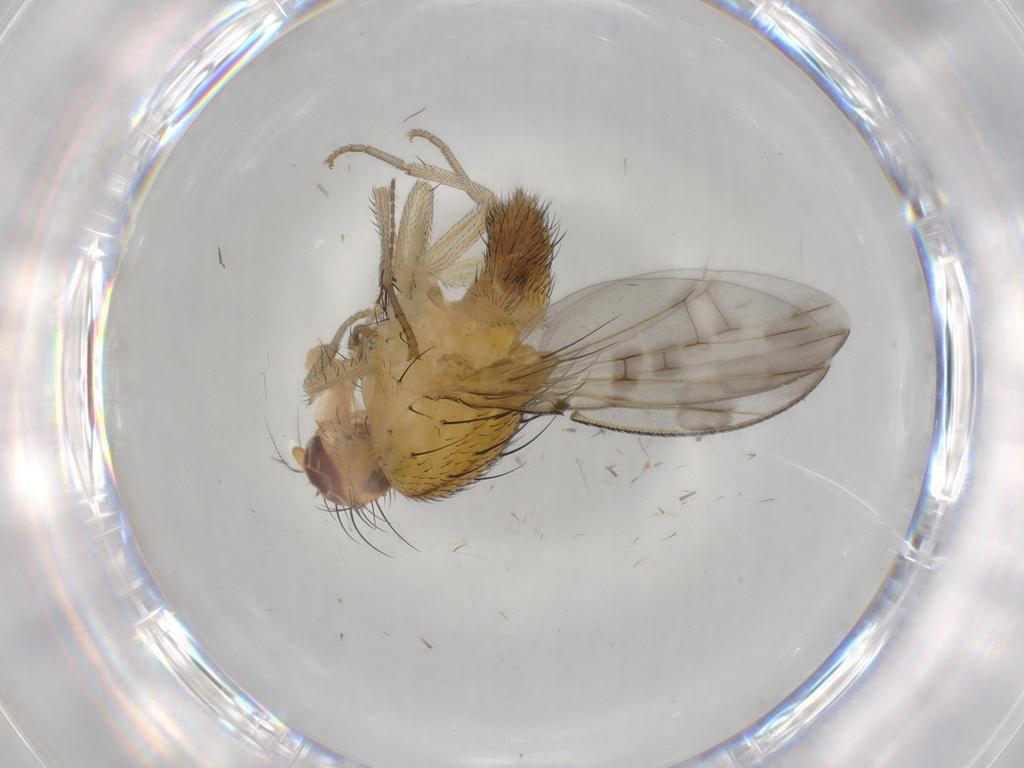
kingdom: Animalia
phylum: Arthropoda
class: Insecta
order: Diptera
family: Lauxaniidae
